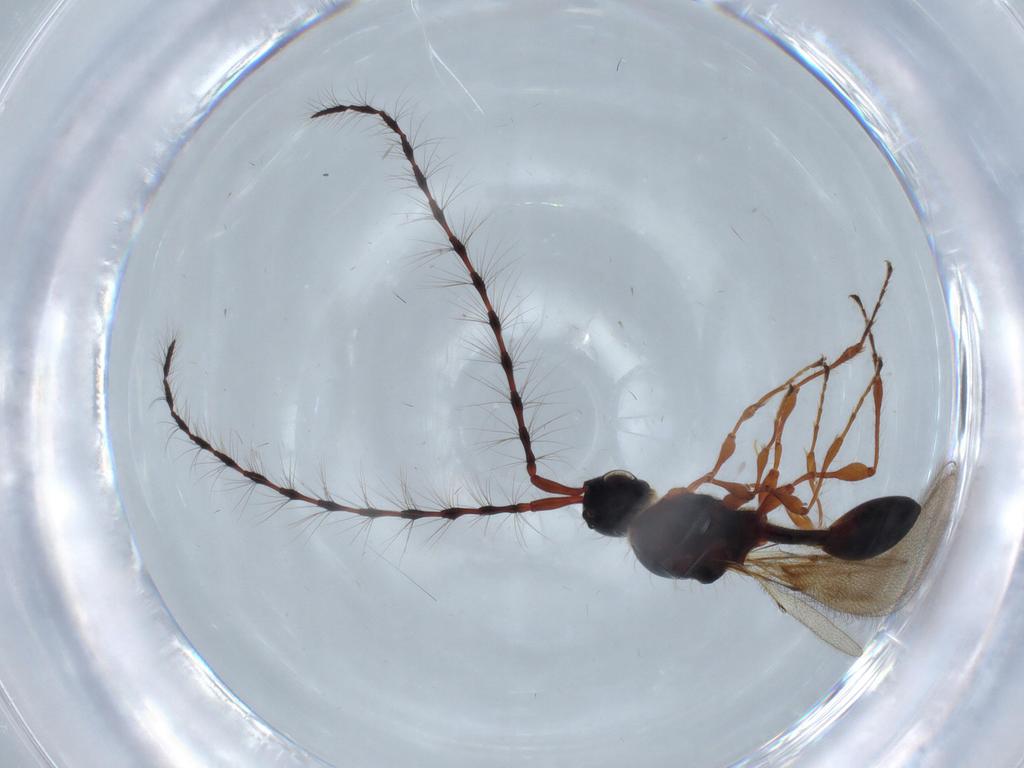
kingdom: Animalia
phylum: Arthropoda
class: Insecta
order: Hymenoptera
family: Diapriidae
